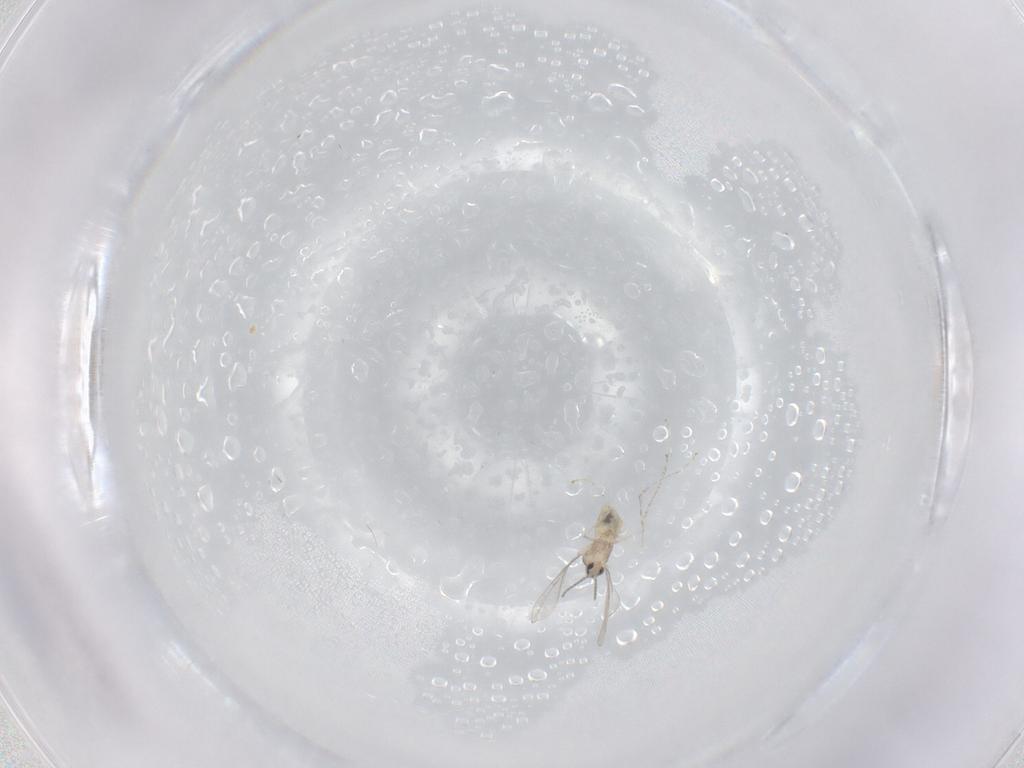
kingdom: Animalia
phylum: Arthropoda
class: Insecta
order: Diptera
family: Cecidomyiidae
